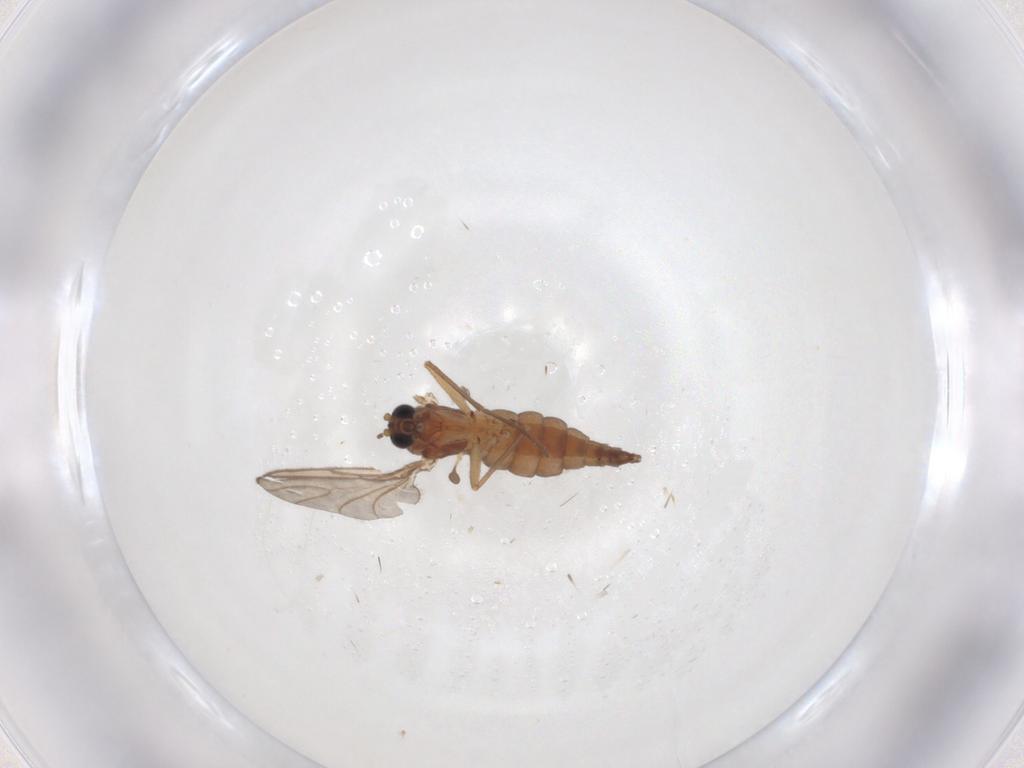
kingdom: Animalia
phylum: Arthropoda
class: Insecta
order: Diptera
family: Sciaridae
